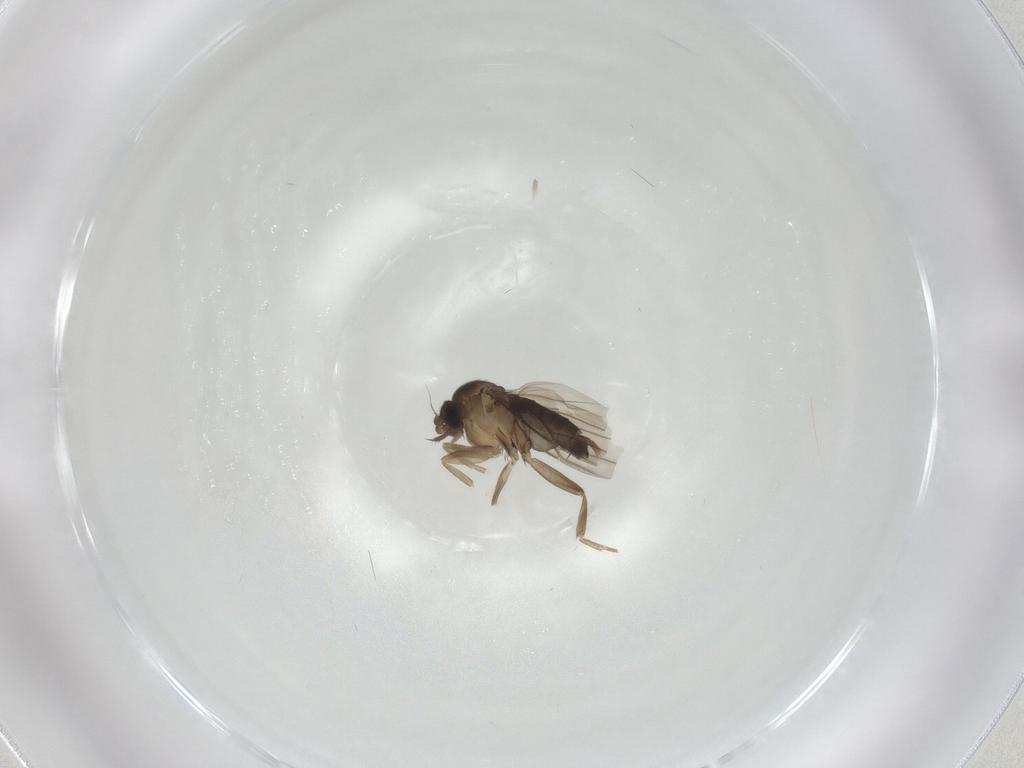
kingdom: Animalia
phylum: Arthropoda
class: Insecta
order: Diptera
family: Phoridae
